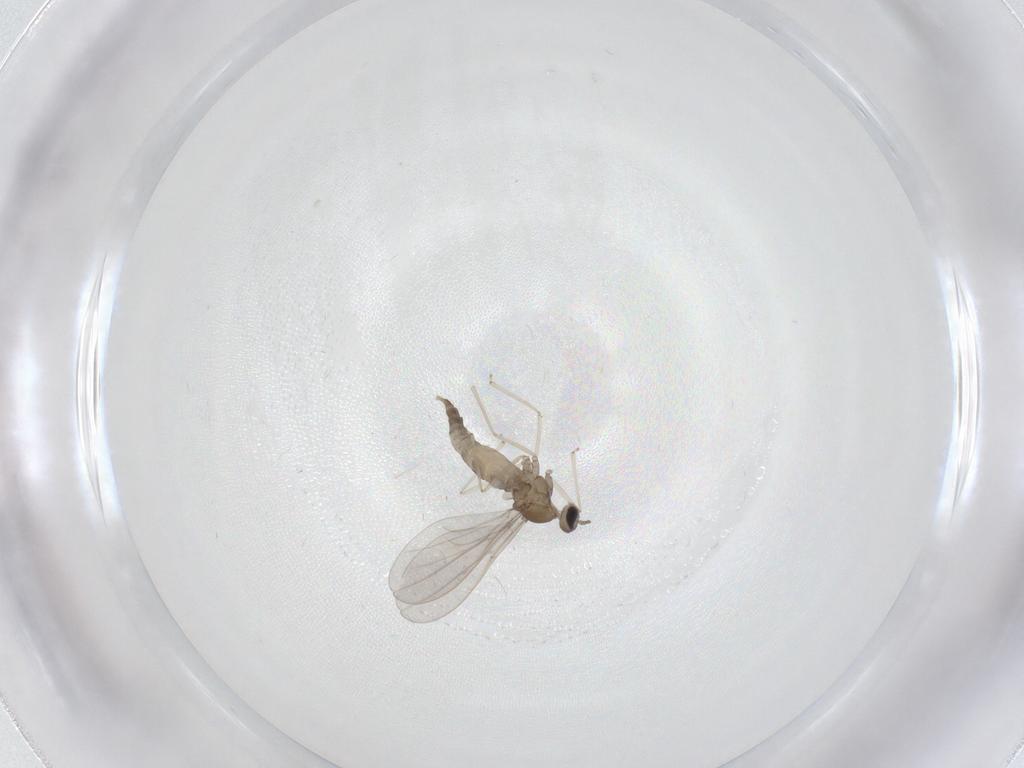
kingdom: Animalia
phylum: Arthropoda
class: Insecta
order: Diptera
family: Cecidomyiidae
